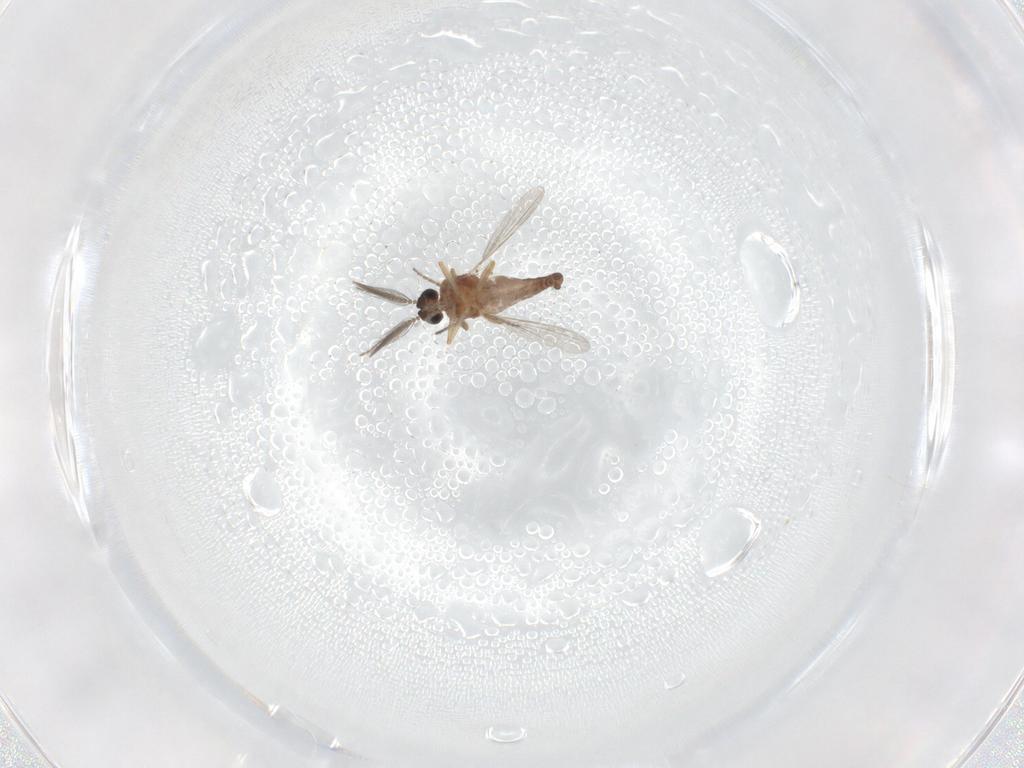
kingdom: Animalia
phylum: Arthropoda
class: Insecta
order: Diptera
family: Ceratopogonidae
